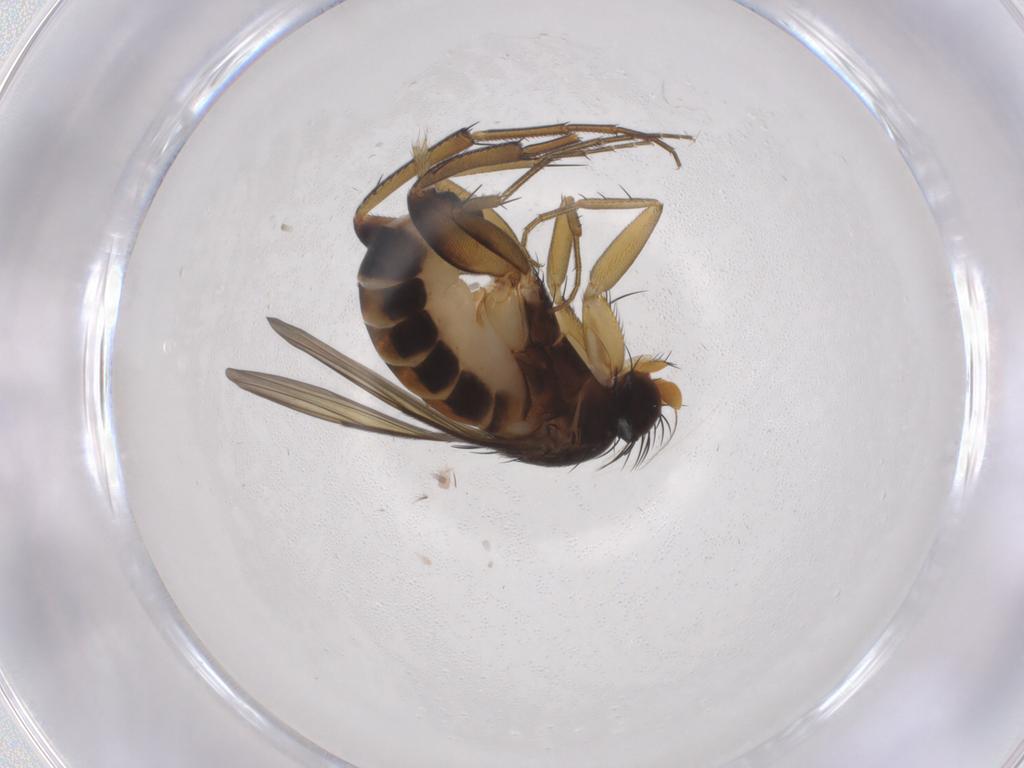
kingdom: Animalia
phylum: Arthropoda
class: Insecta
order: Diptera
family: Phoridae
